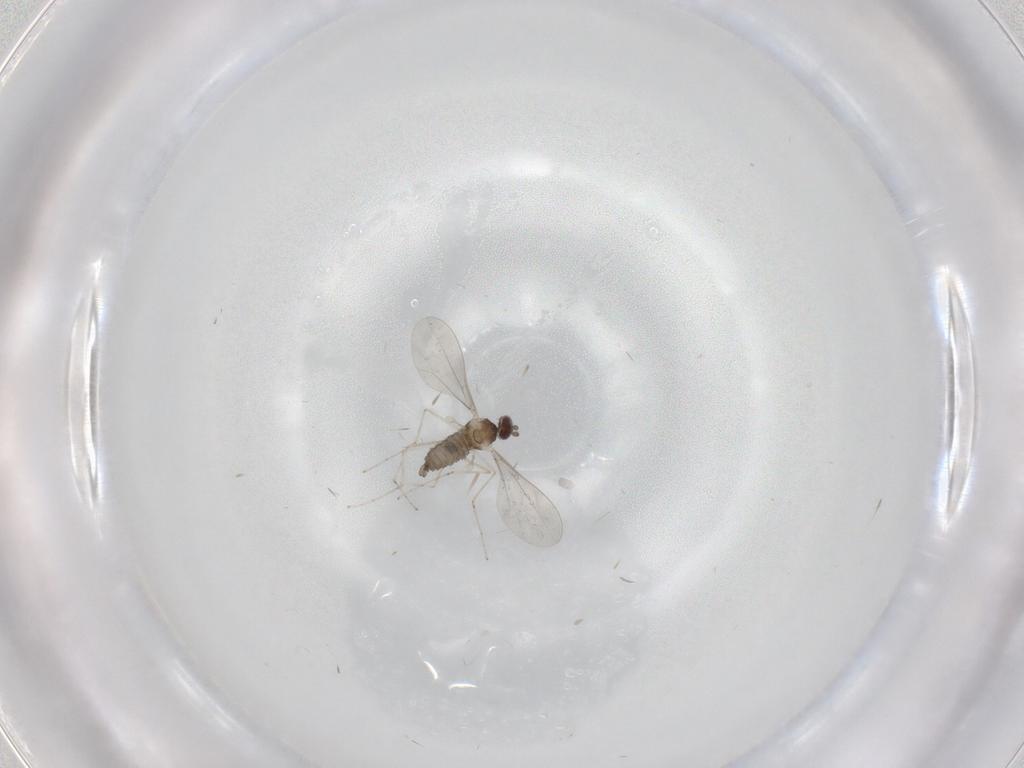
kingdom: Animalia
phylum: Arthropoda
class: Insecta
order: Diptera
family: Cecidomyiidae
